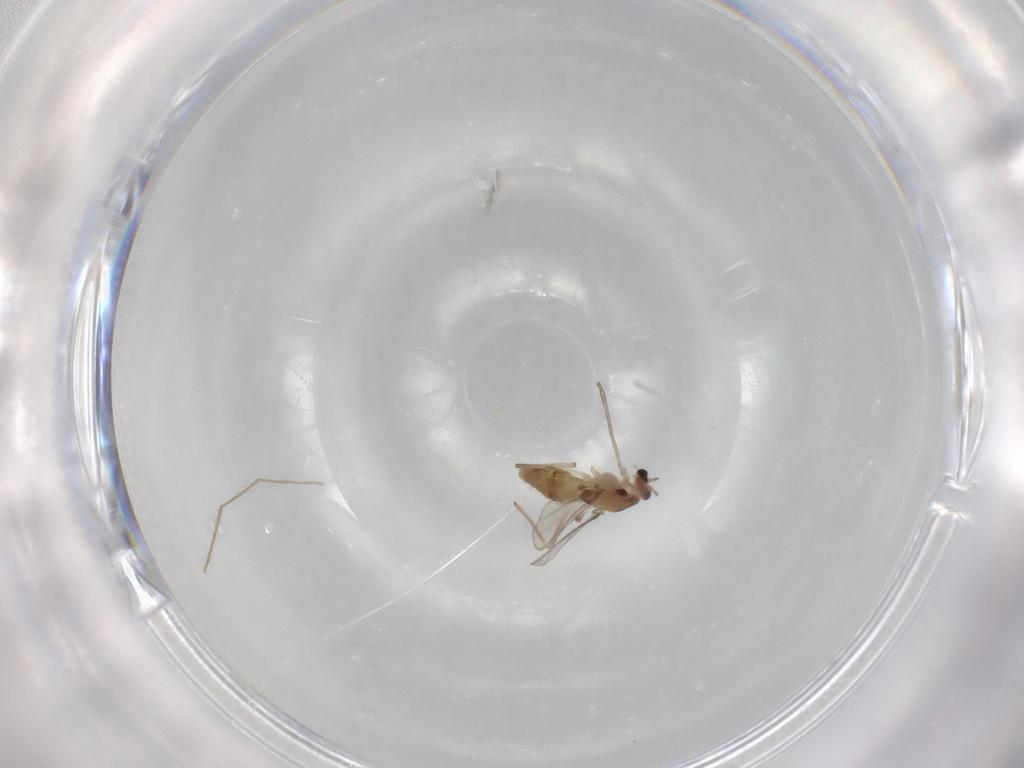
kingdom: Animalia
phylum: Arthropoda
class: Insecta
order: Diptera
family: Chironomidae
